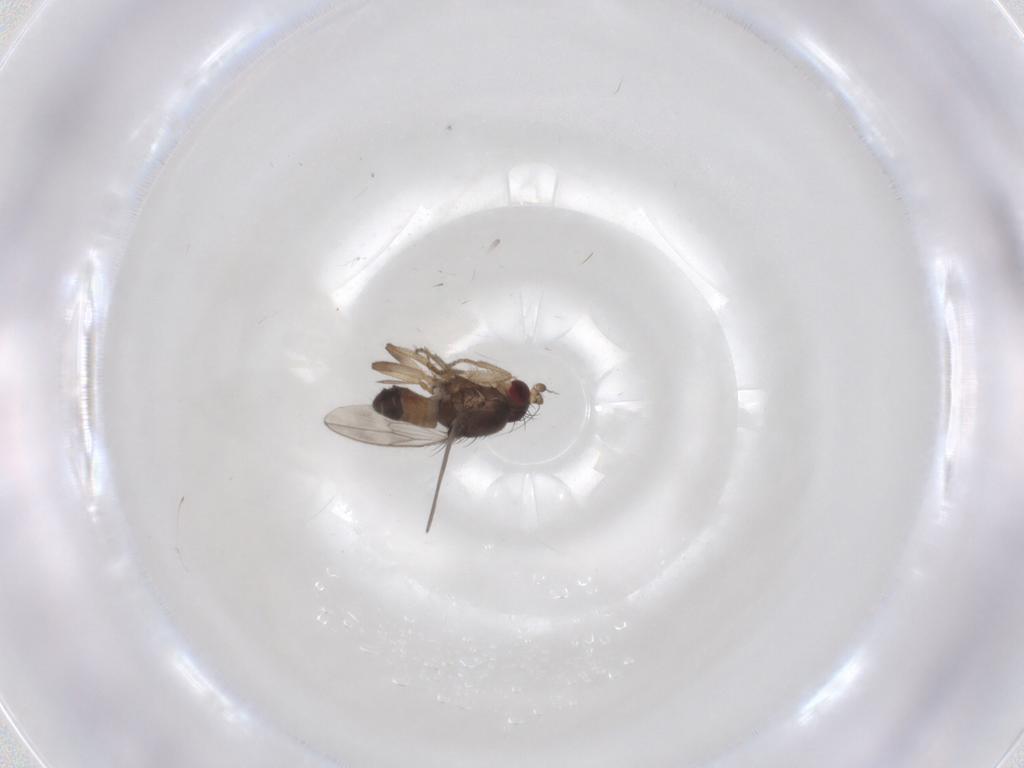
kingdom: Animalia
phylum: Arthropoda
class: Insecta
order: Diptera
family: Sphaeroceridae
